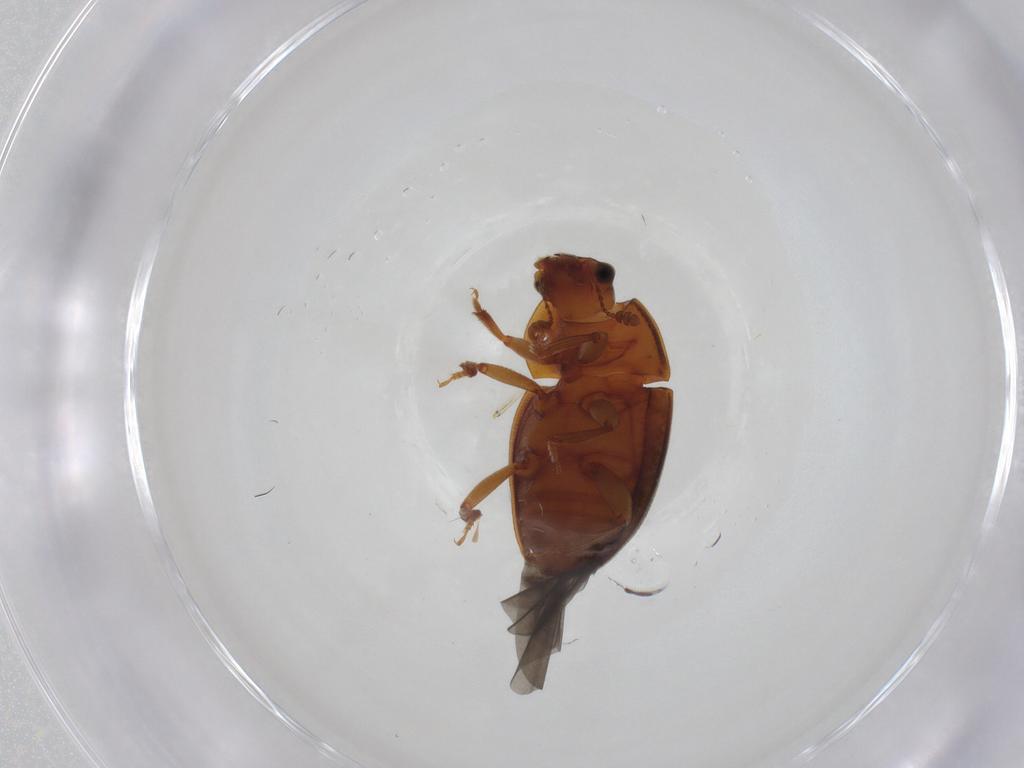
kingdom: Animalia
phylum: Arthropoda
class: Insecta
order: Coleoptera
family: Nitidulidae
